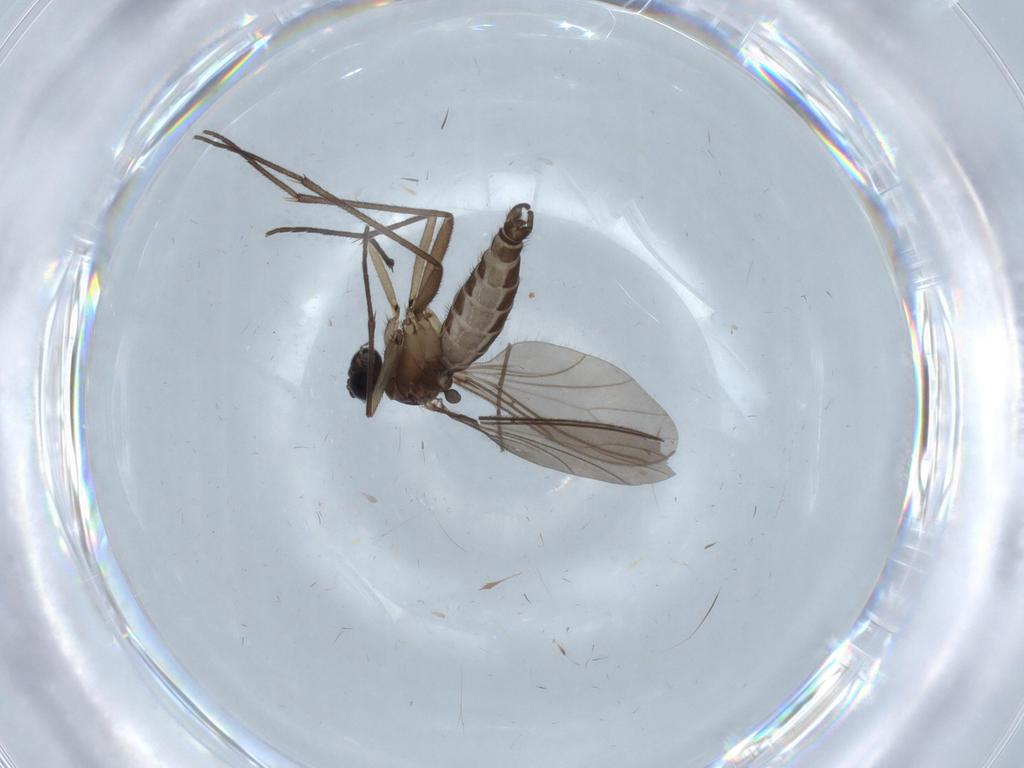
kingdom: Animalia
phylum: Arthropoda
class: Insecta
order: Diptera
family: Sciaridae
